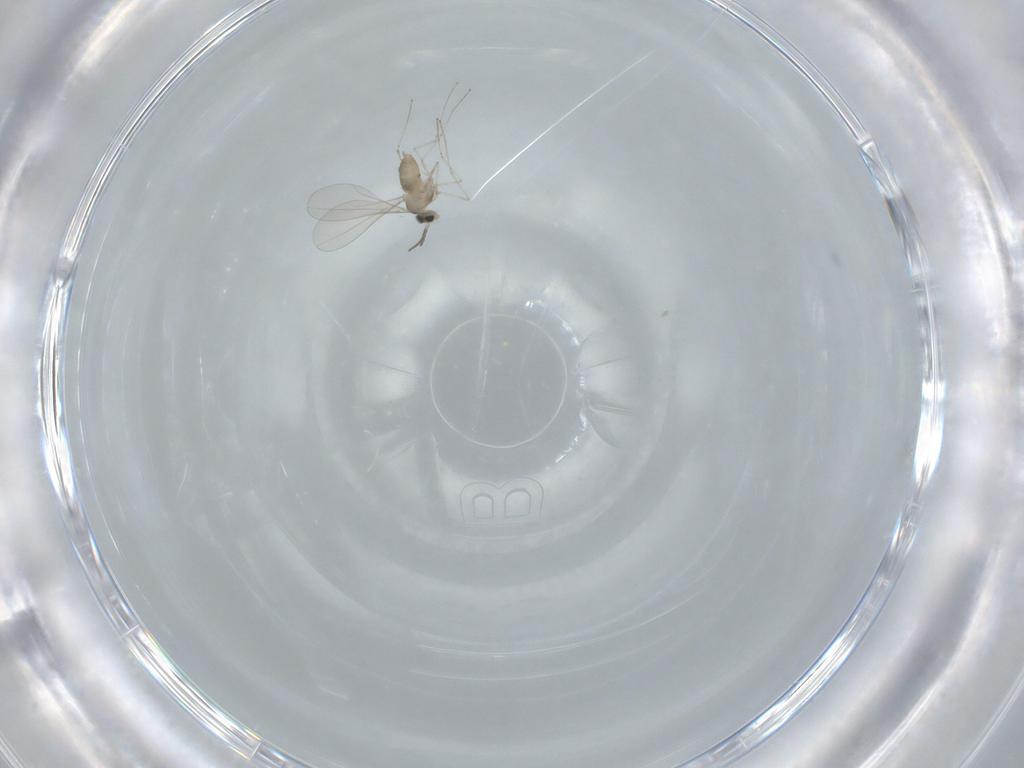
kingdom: Animalia
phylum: Arthropoda
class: Insecta
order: Diptera
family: Cecidomyiidae
